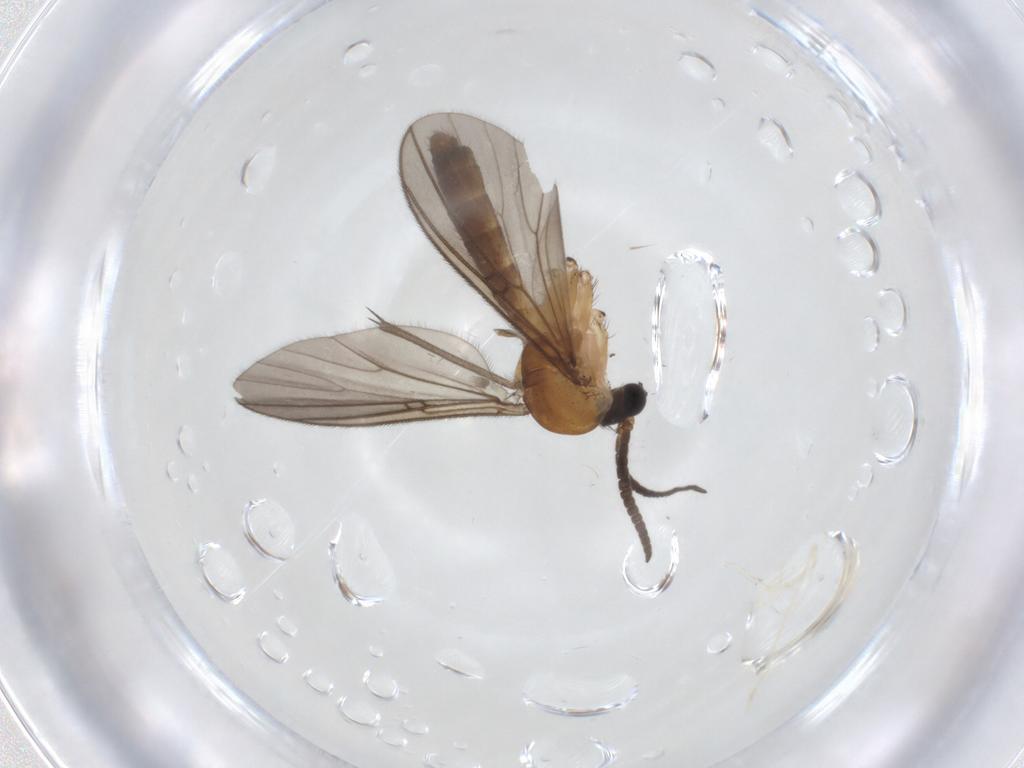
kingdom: Animalia
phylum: Arthropoda
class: Insecta
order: Diptera
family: Mycetophilidae
